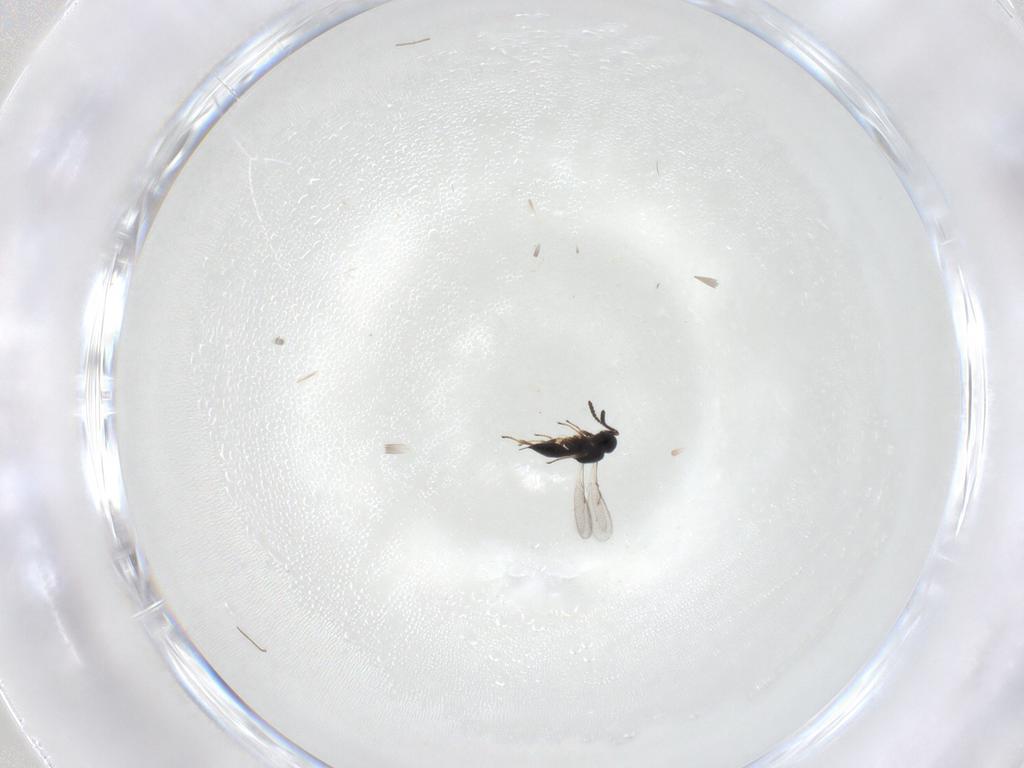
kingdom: Animalia
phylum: Arthropoda
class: Insecta
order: Hymenoptera
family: Scelionidae
